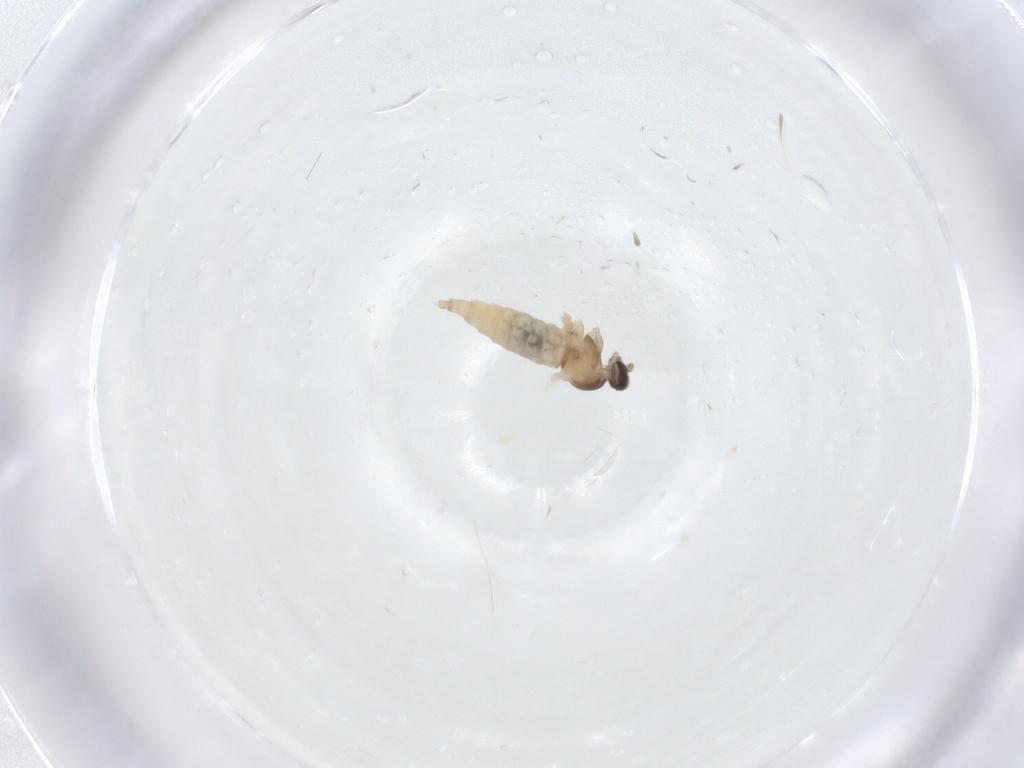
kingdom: Animalia
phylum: Arthropoda
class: Insecta
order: Diptera
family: Cecidomyiidae
